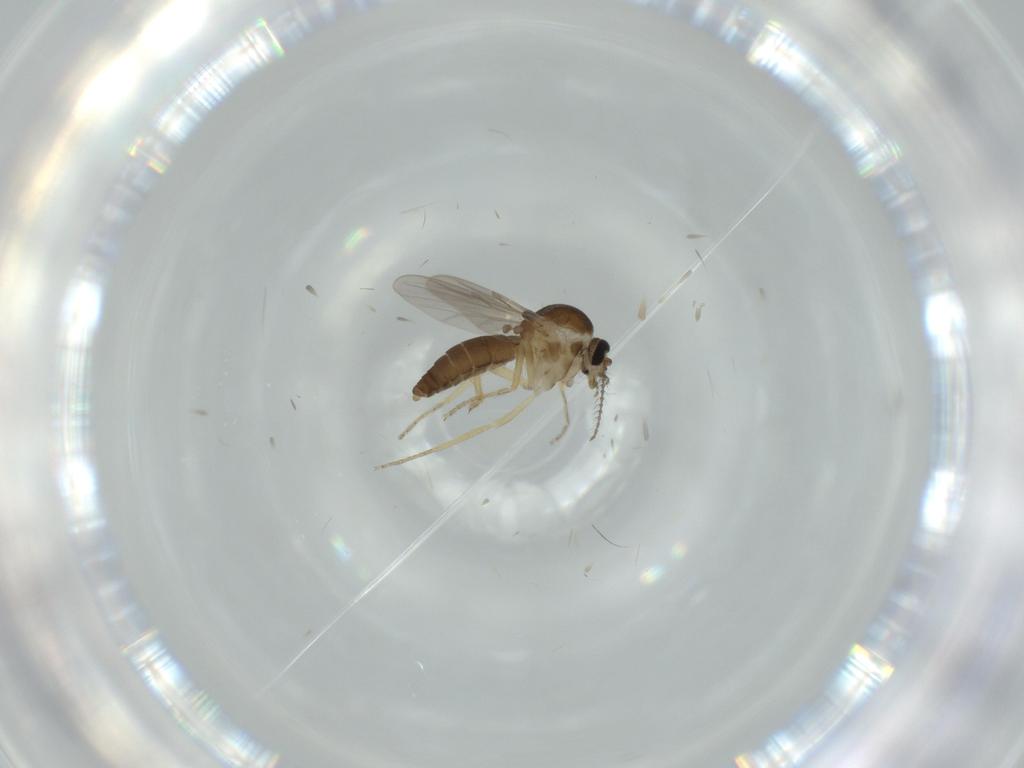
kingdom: Animalia
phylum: Arthropoda
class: Insecta
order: Diptera
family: Ceratopogonidae
